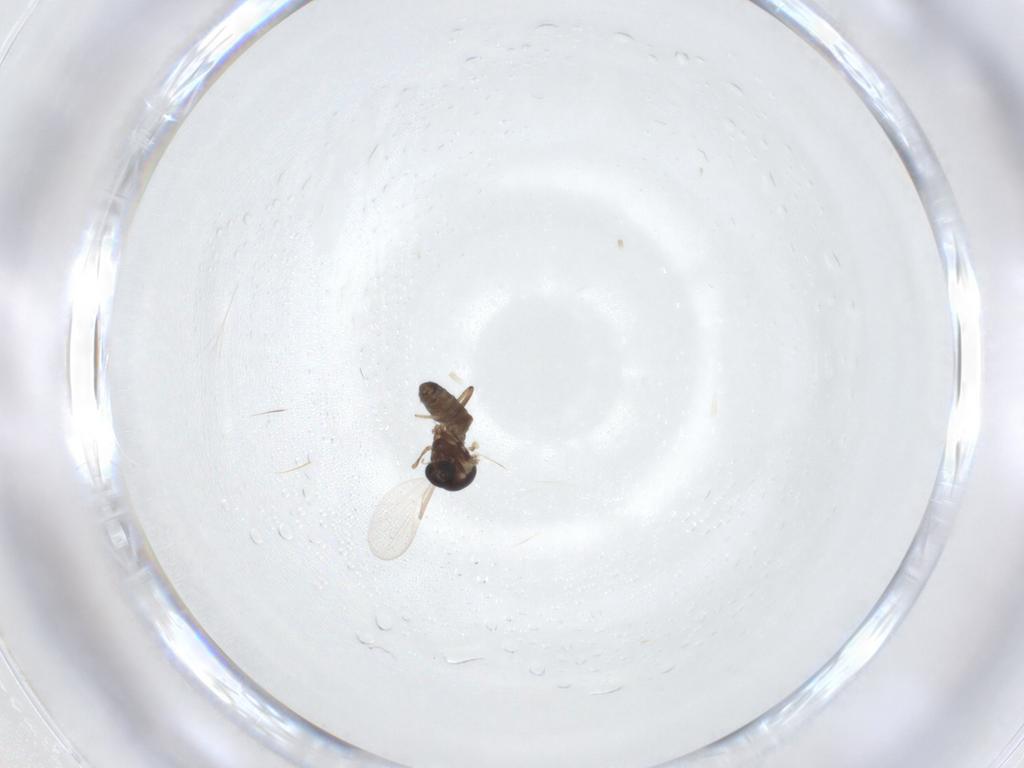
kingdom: Animalia
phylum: Arthropoda
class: Insecta
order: Diptera
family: Ceratopogonidae
